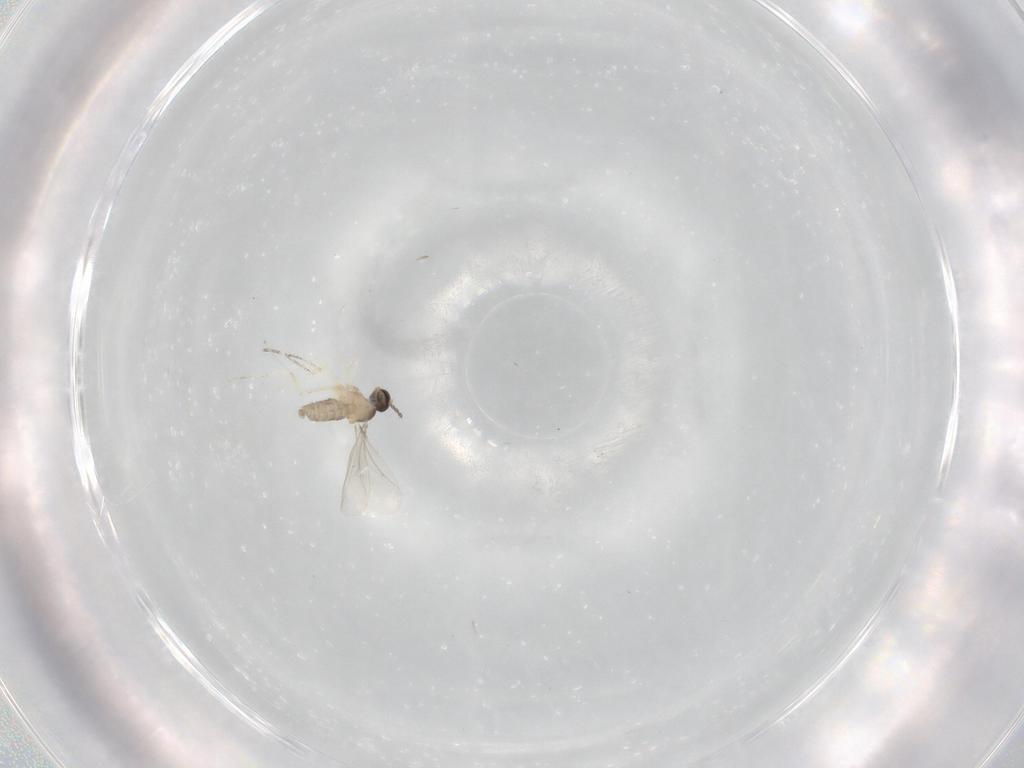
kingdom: Animalia
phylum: Arthropoda
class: Insecta
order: Diptera
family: Cecidomyiidae
